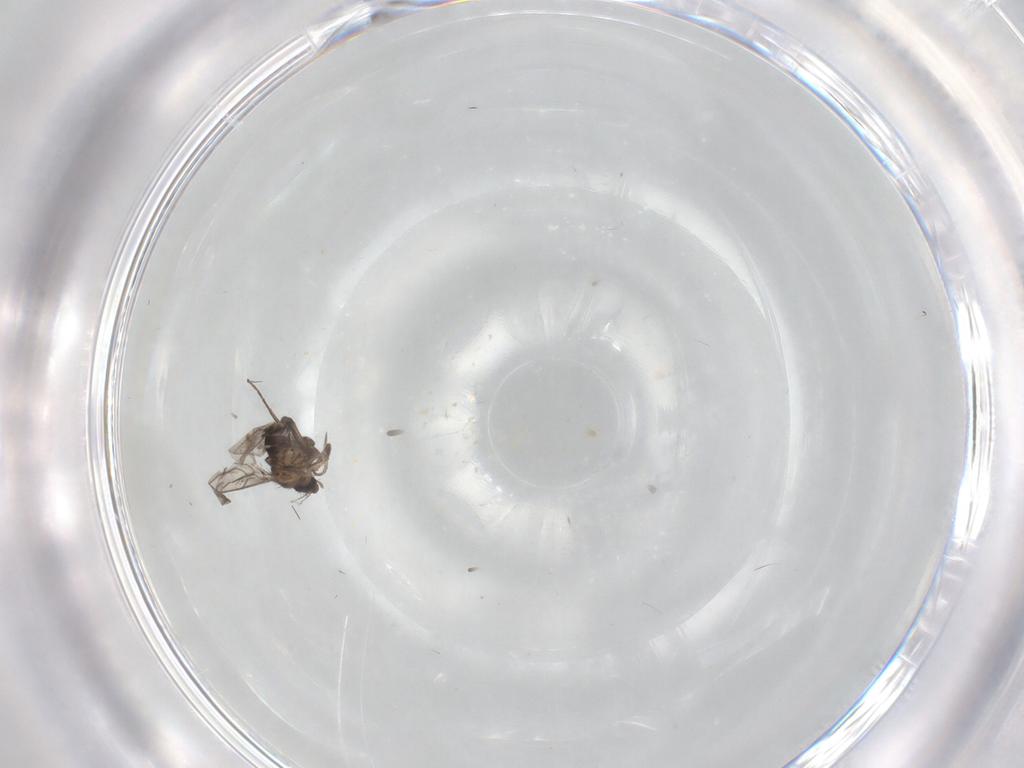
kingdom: Animalia
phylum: Arthropoda
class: Insecta
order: Diptera
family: Phoridae
